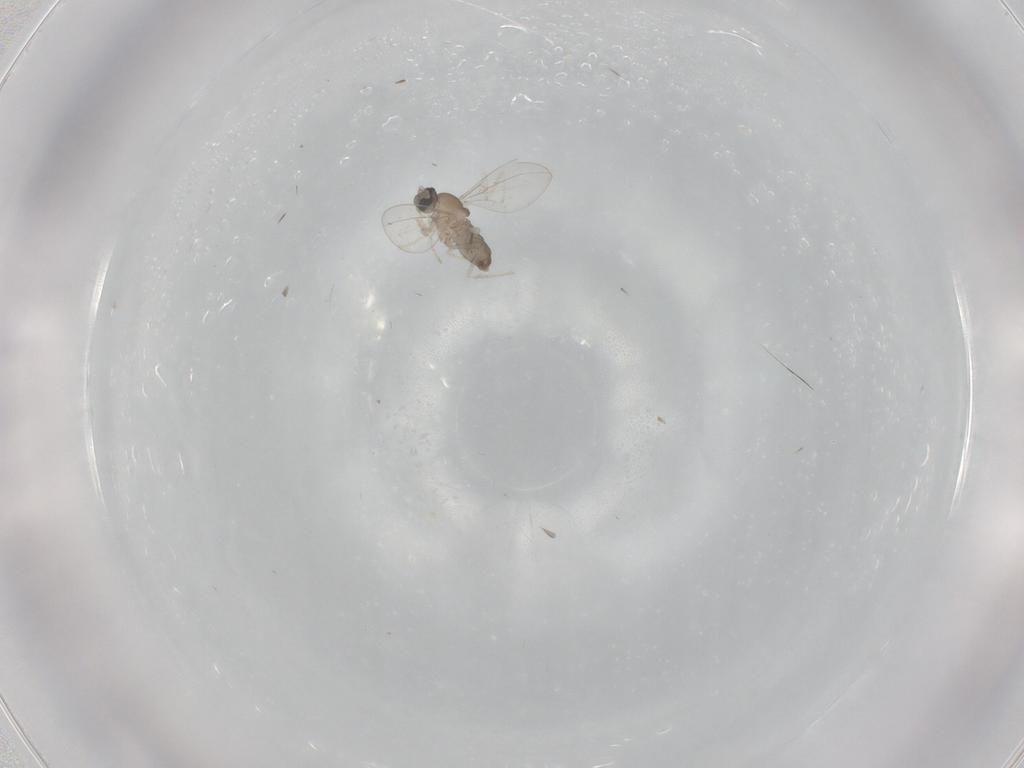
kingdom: Animalia
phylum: Arthropoda
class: Insecta
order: Diptera
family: Cecidomyiidae
